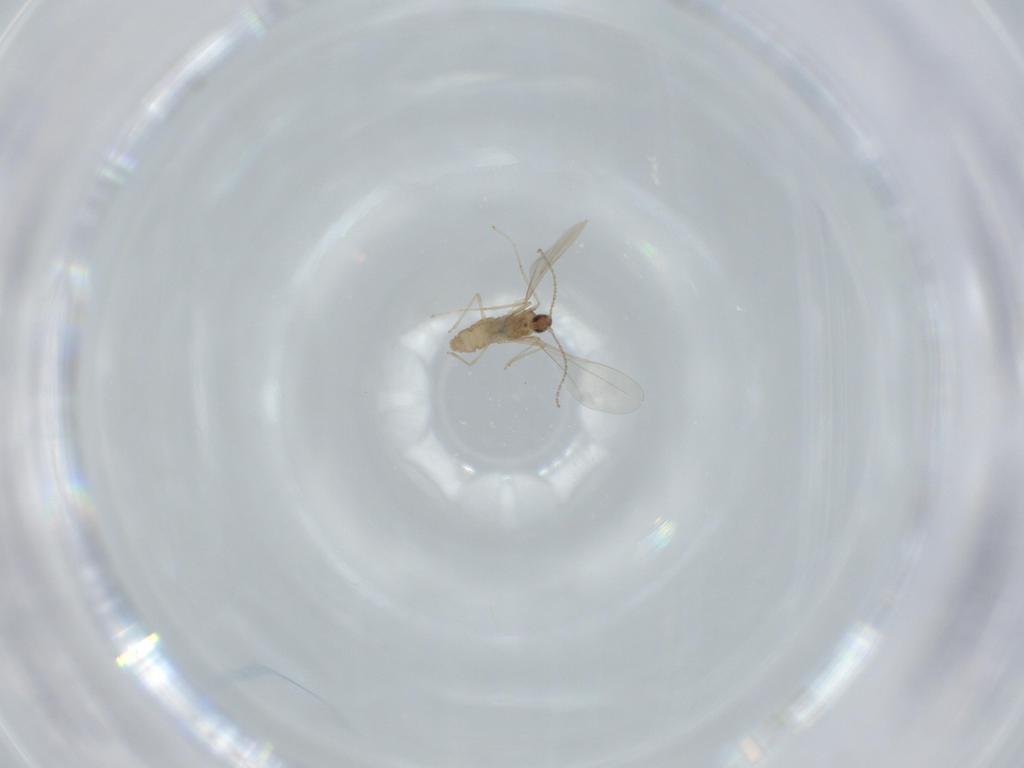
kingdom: Animalia
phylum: Arthropoda
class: Insecta
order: Diptera
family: Cecidomyiidae
